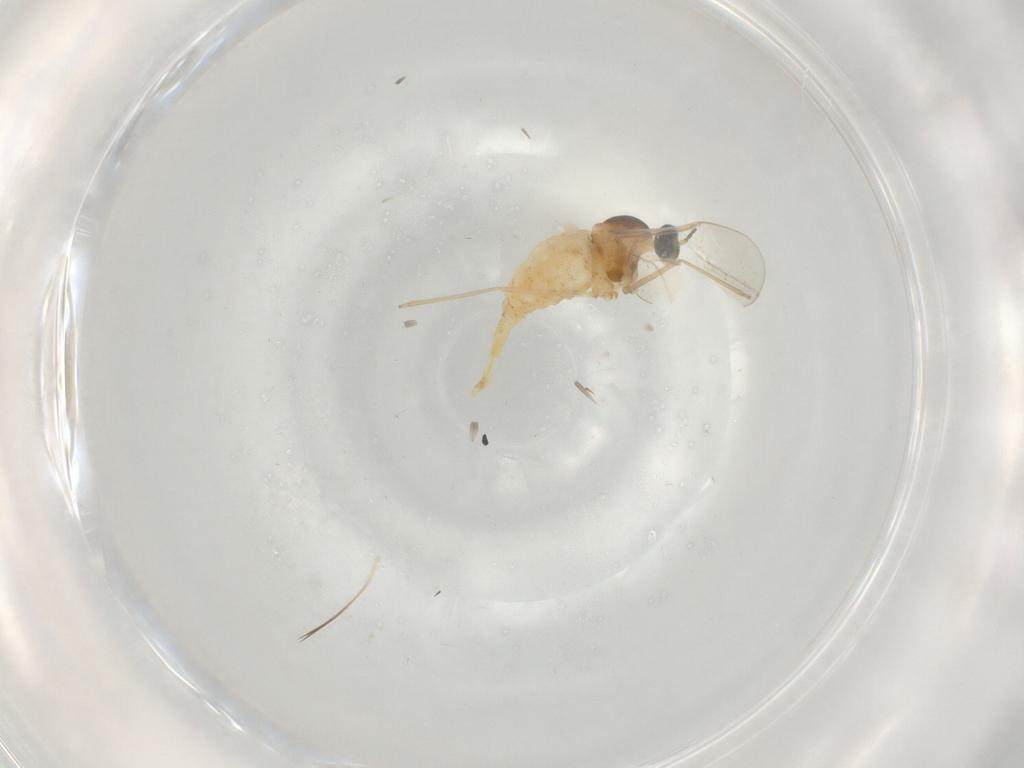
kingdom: Animalia
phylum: Arthropoda
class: Insecta
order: Diptera
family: Cecidomyiidae
